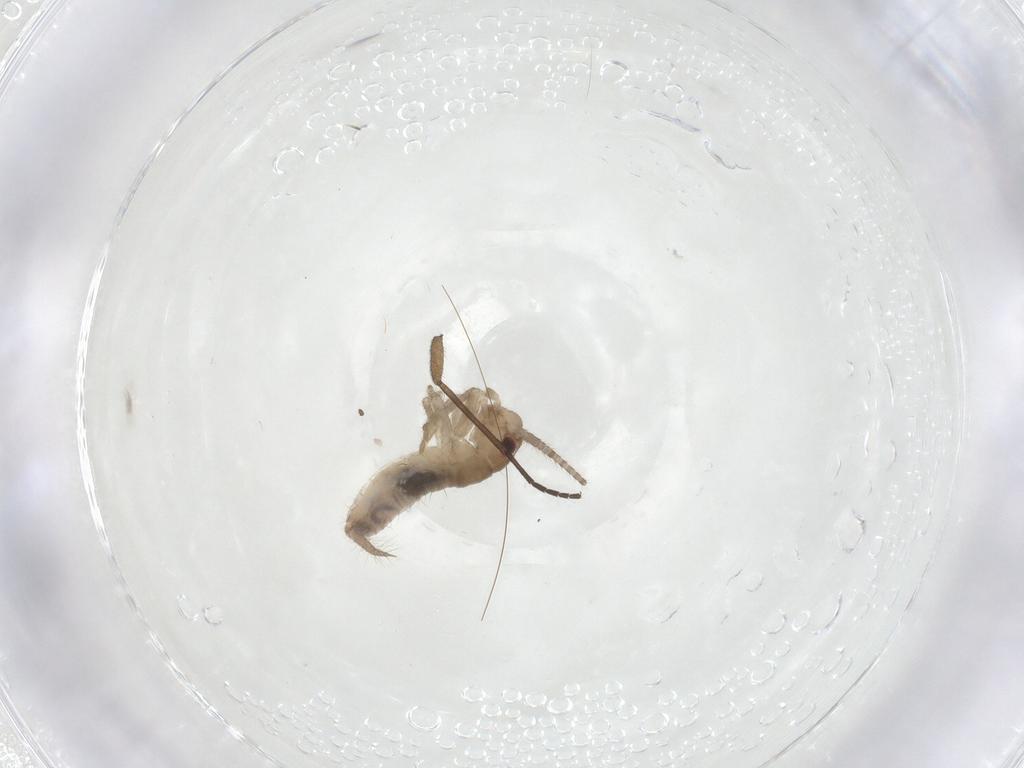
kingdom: Animalia
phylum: Arthropoda
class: Insecta
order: Orthoptera
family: Gryllidae
